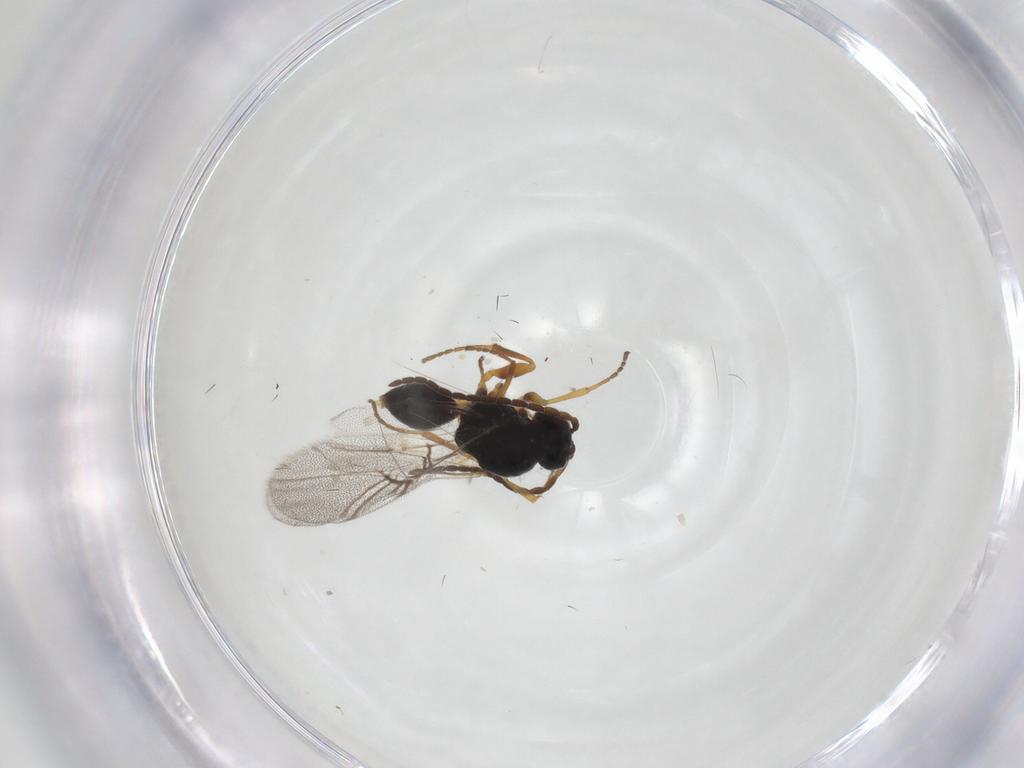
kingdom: Animalia
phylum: Arthropoda
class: Insecta
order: Hymenoptera
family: Cynipidae
